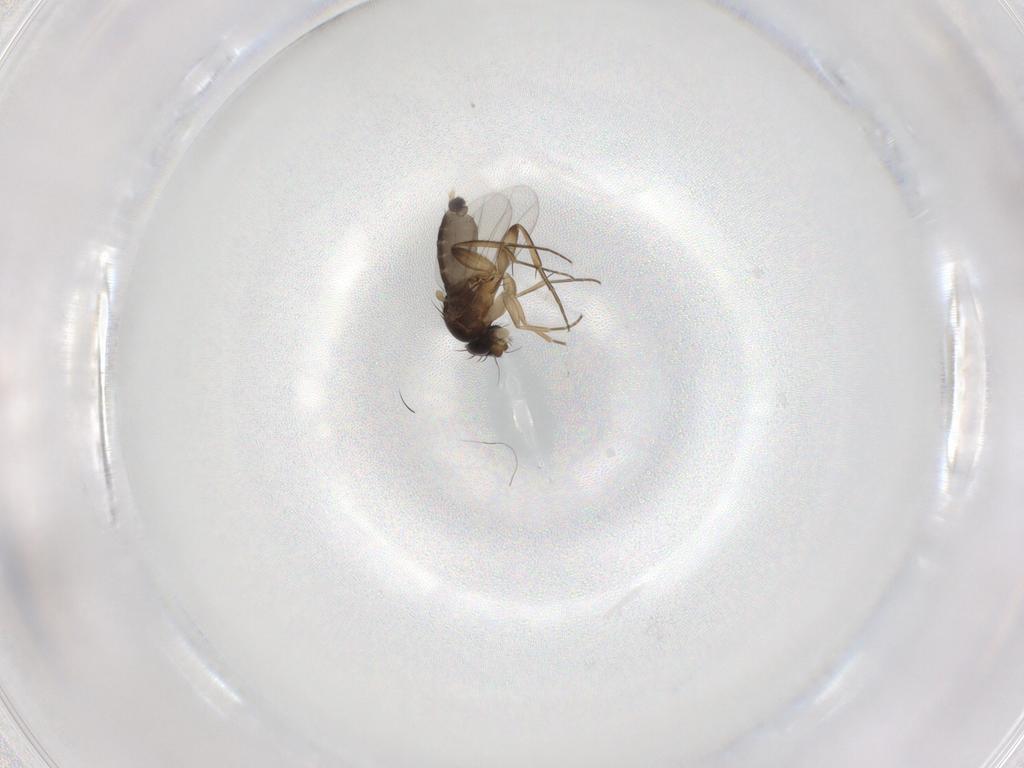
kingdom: Animalia
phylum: Arthropoda
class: Insecta
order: Diptera
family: Phoridae
